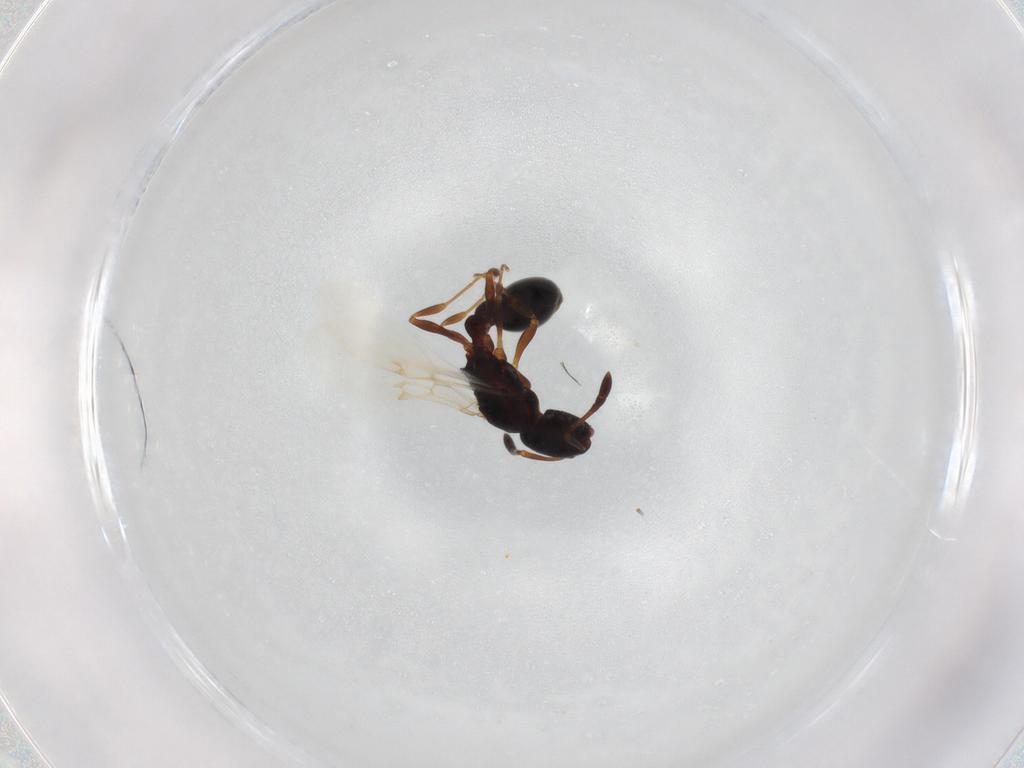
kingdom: Animalia
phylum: Arthropoda
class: Insecta
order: Hymenoptera
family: Formicidae
